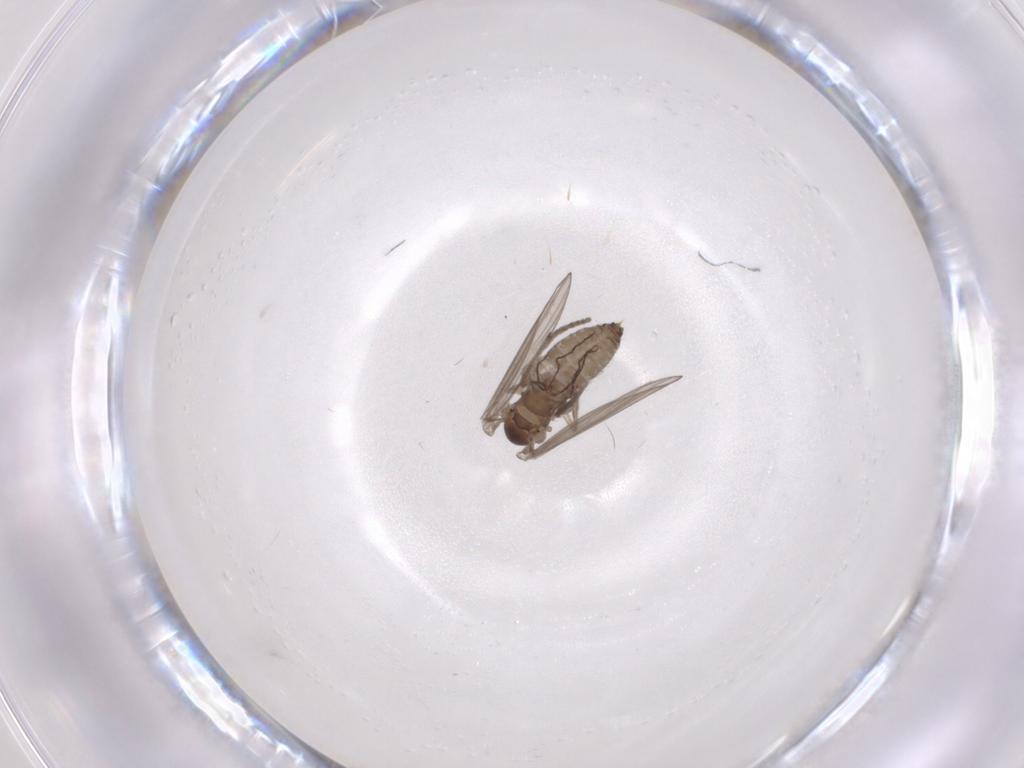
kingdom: Animalia
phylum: Arthropoda
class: Insecta
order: Diptera
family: Psychodidae
